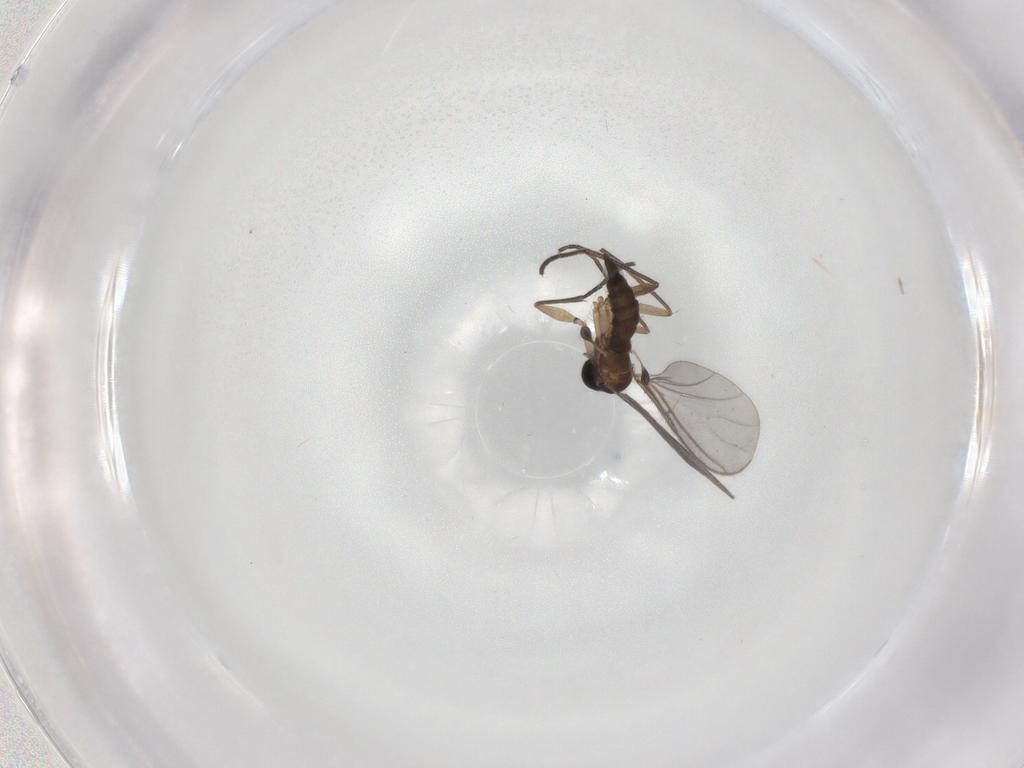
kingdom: Animalia
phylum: Arthropoda
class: Insecta
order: Diptera
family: Sciaridae
